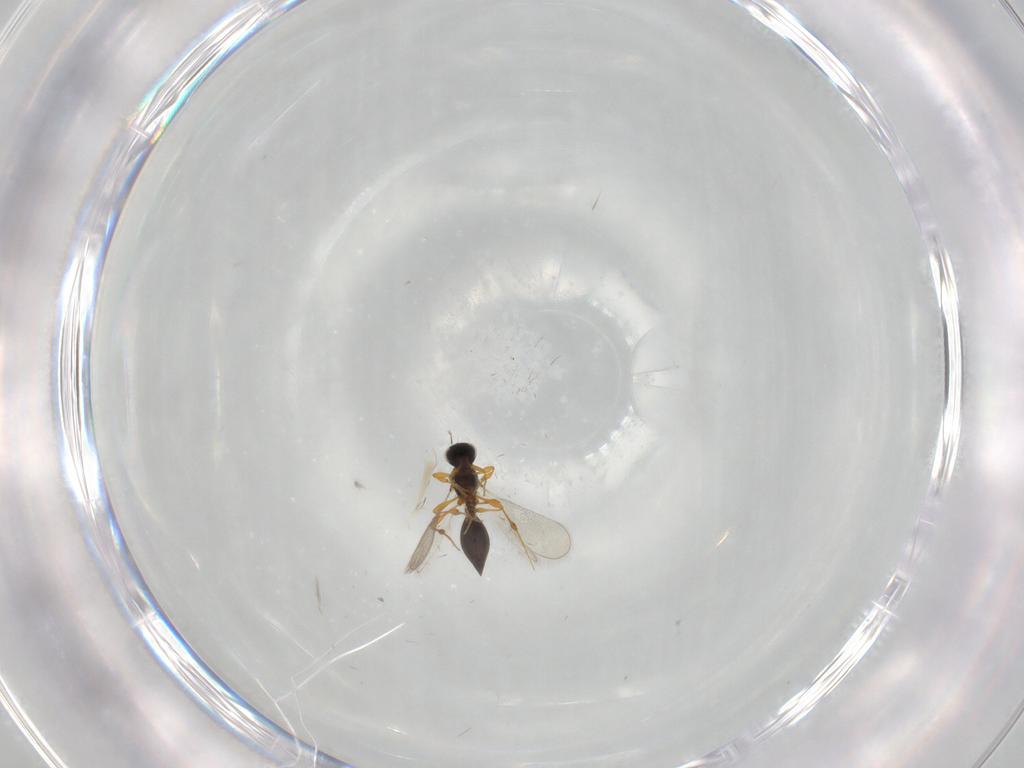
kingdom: Animalia
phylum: Arthropoda
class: Insecta
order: Hymenoptera
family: Platygastridae
